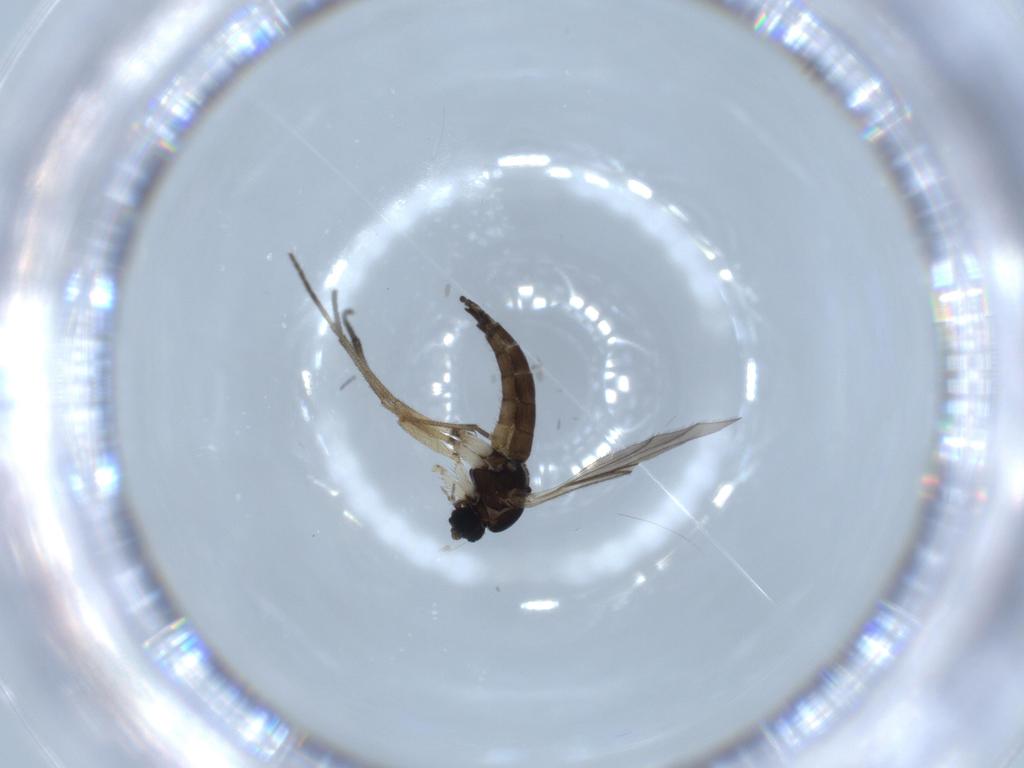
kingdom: Animalia
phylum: Arthropoda
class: Insecta
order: Diptera
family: Sciaridae
